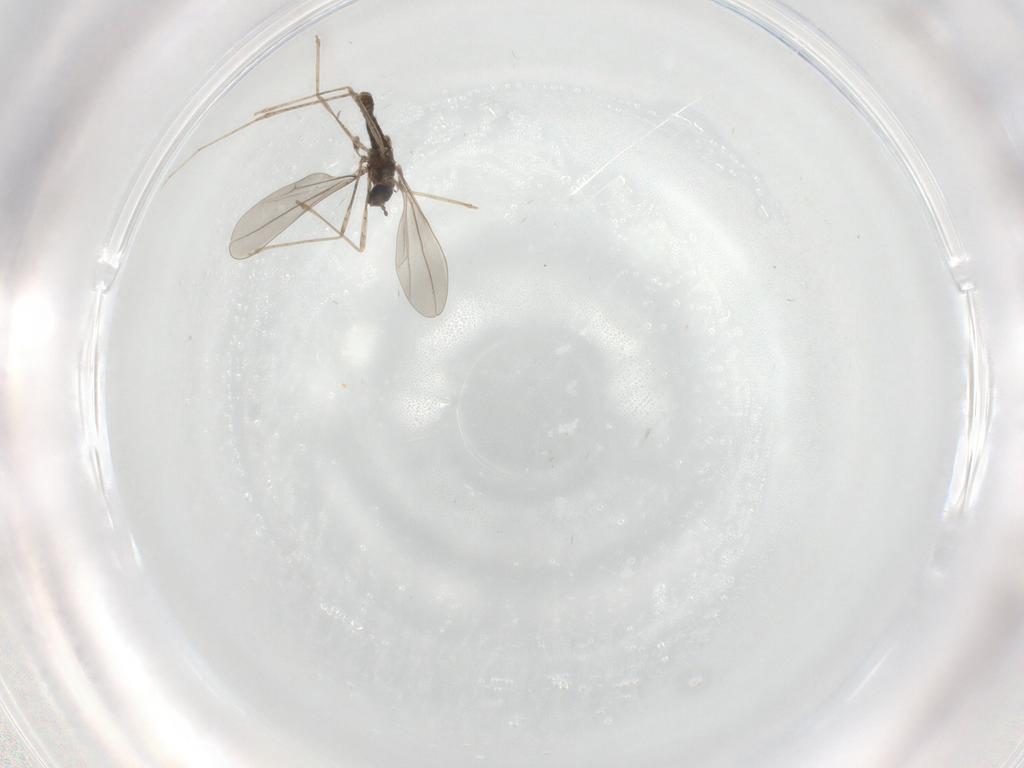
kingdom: Animalia
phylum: Arthropoda
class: Insecta
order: Diptera
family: Cecidomyiidae
